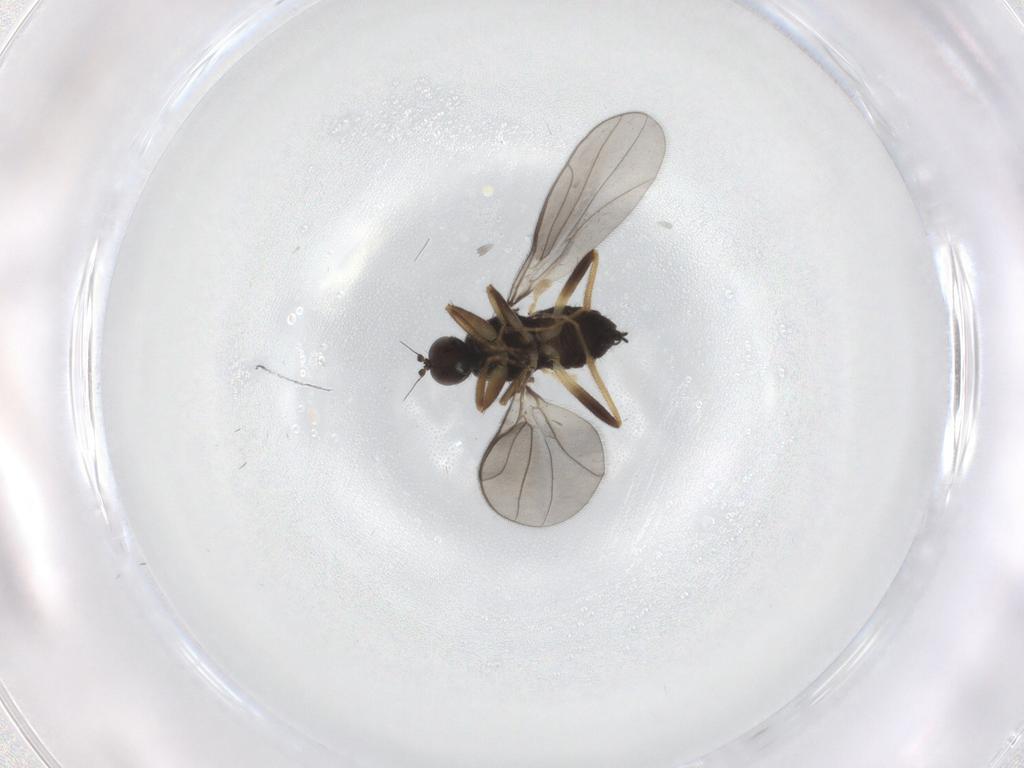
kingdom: Animalia
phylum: Arthropoda
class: Insecta
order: Diptera
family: Hybotidae
